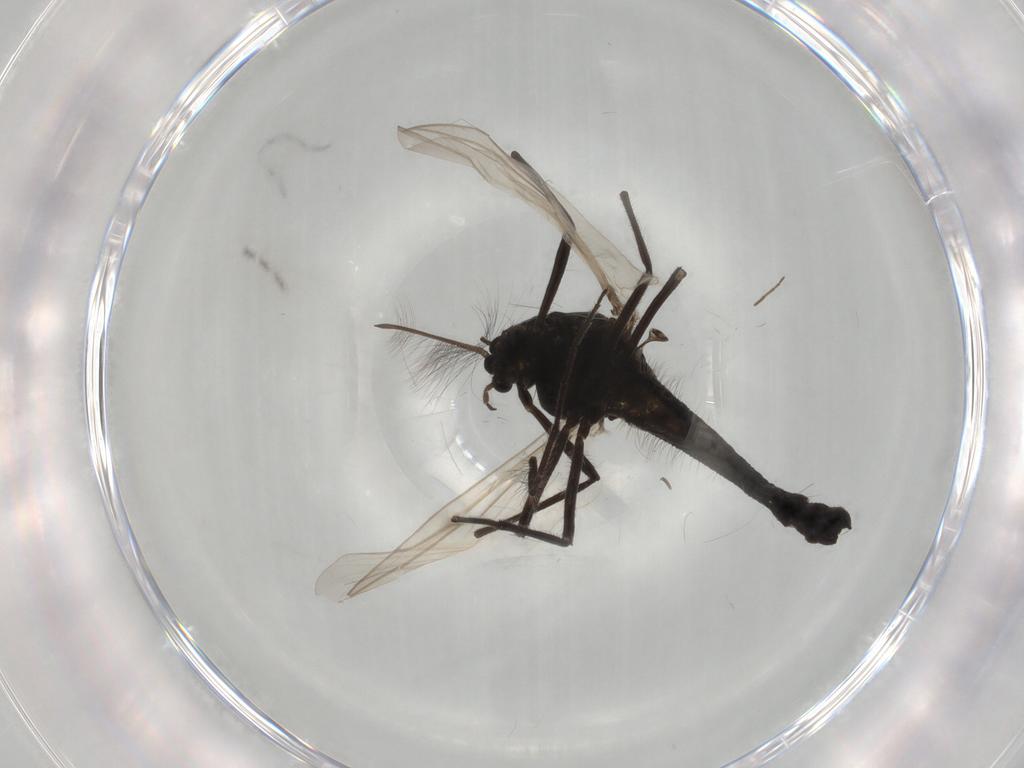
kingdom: Animalia
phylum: Arthropoda
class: Insecta
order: Diptera
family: Chironomidae
